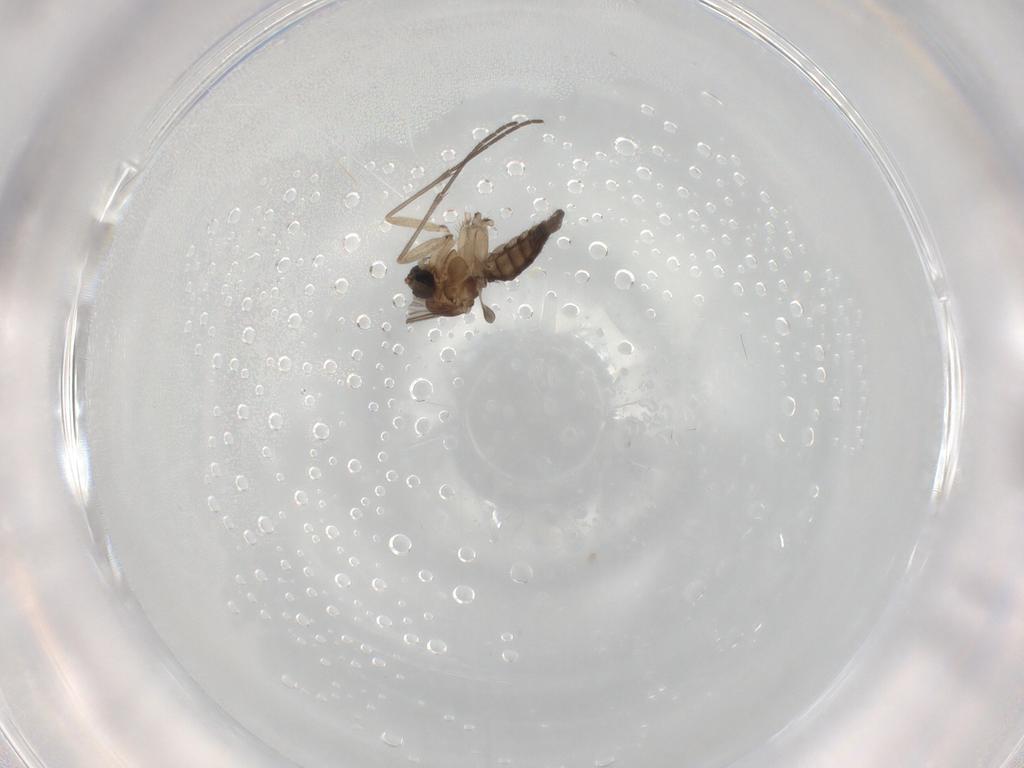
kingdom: Animalia
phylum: Arthropoda
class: Insecta
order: Diptera
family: Sciaridae
